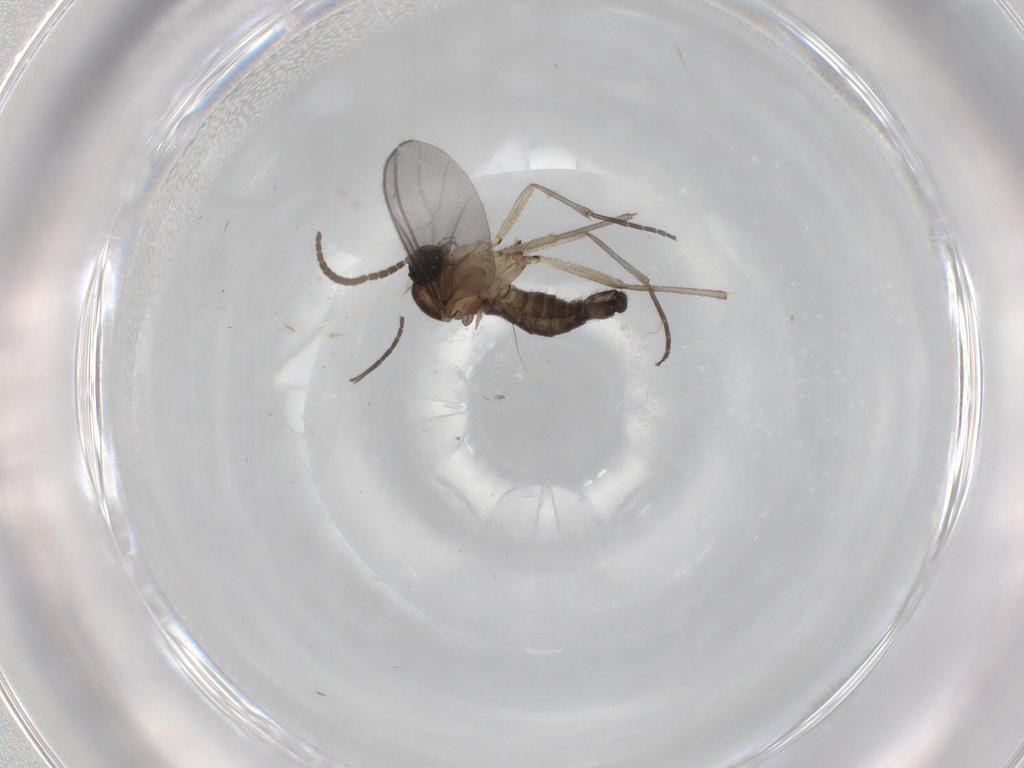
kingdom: Animalia
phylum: Arthropoda
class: Insecta
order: Diptera
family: Cecidomyiidae
